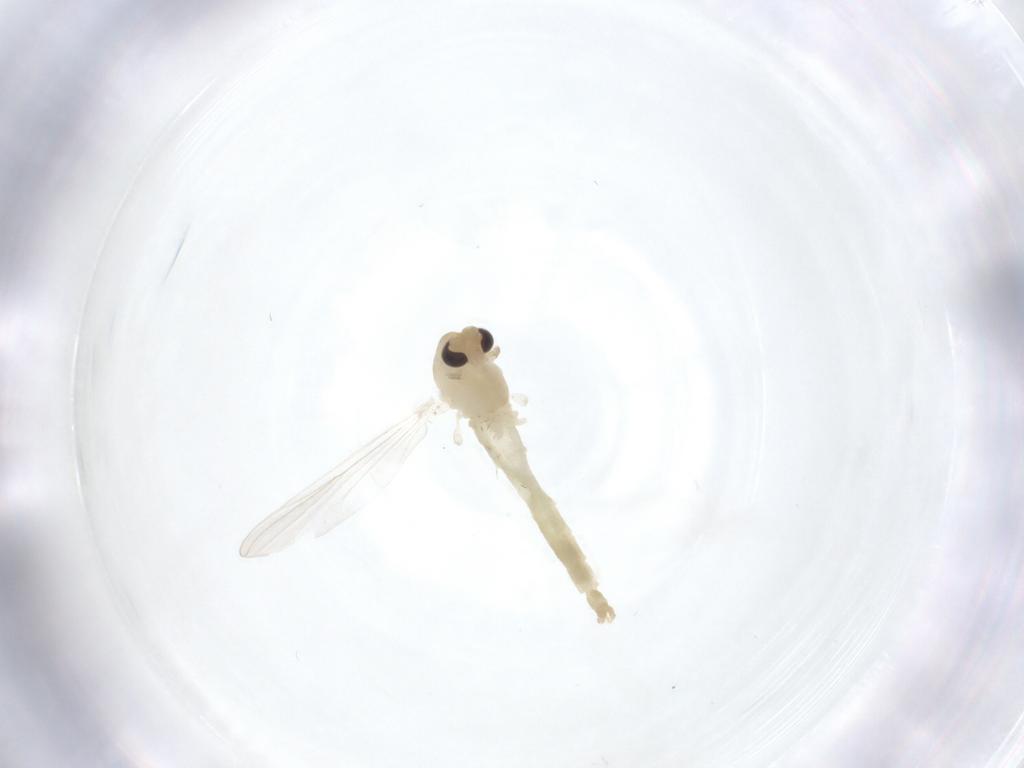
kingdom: Animalia
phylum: Arthropoda
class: Insecta
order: Diptera
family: Chironomidae
